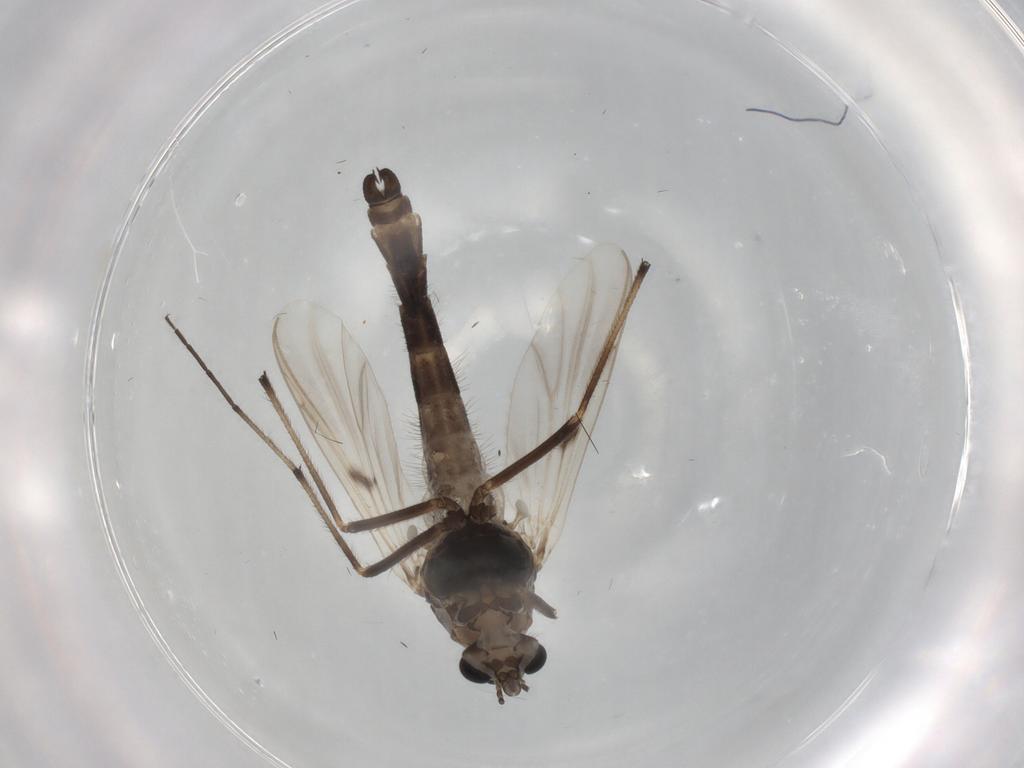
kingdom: Animalia
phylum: Arthropoda
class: Insecta
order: Diptera
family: Chironomidae
